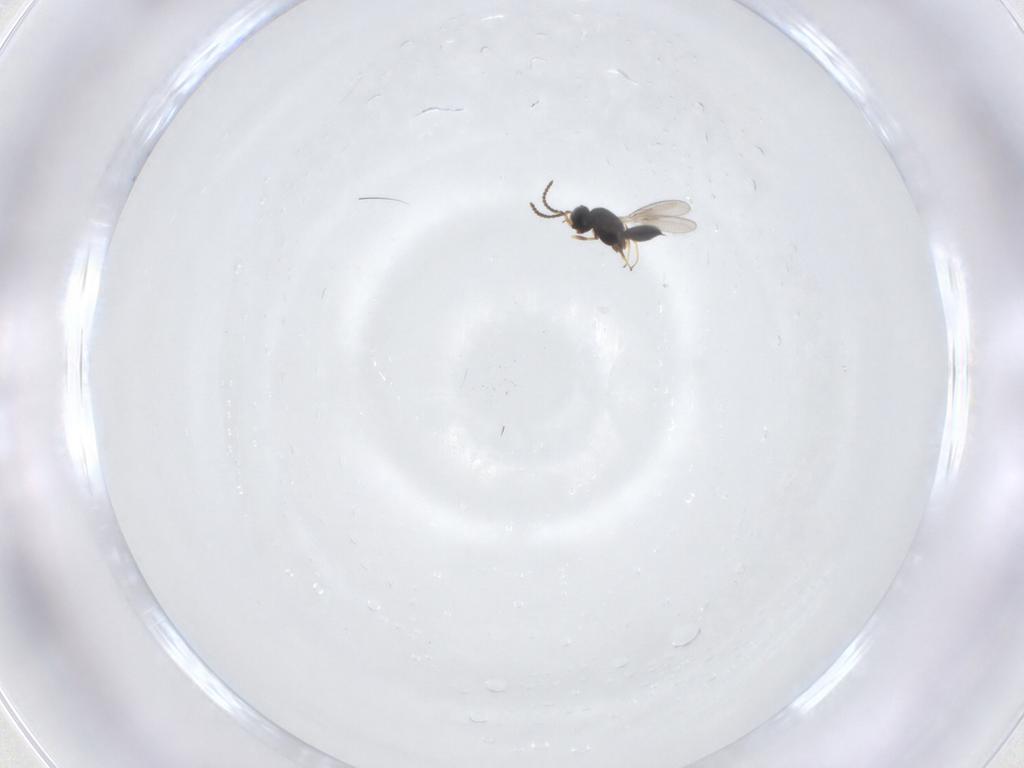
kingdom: Animalia
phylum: Arthropoda
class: Insecta
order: Hymenoptera
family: Scelionidae
